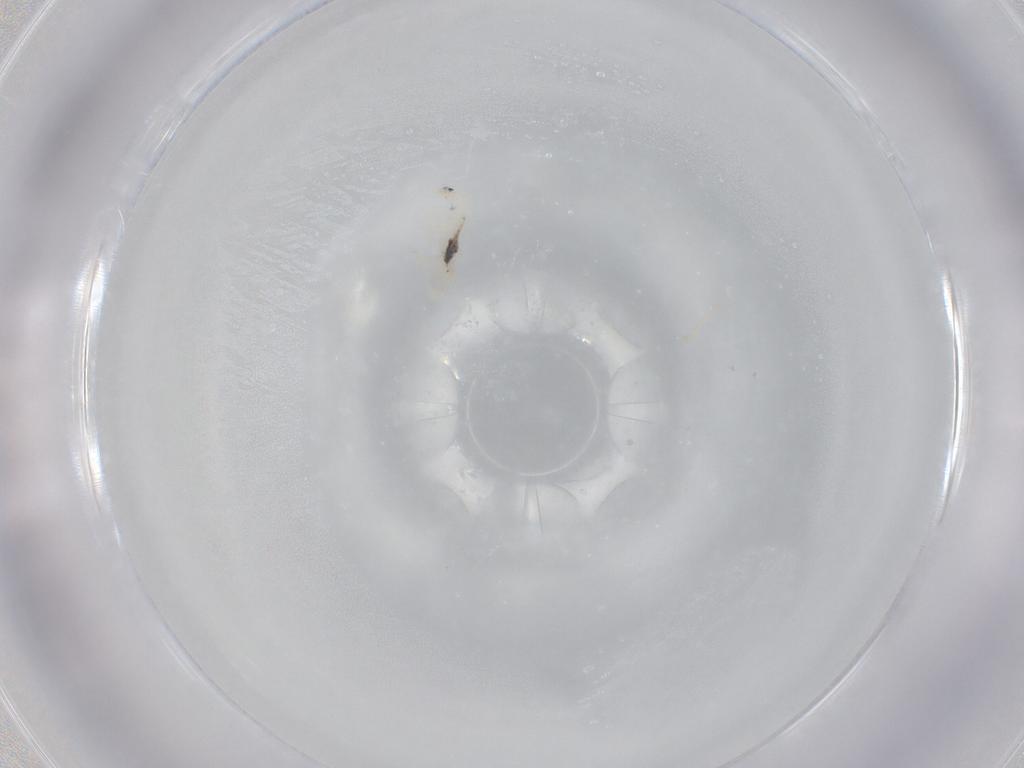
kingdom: Animalia
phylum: Arthropoda
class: Collembola
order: Entomobryomorpha
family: Entomobryidae
